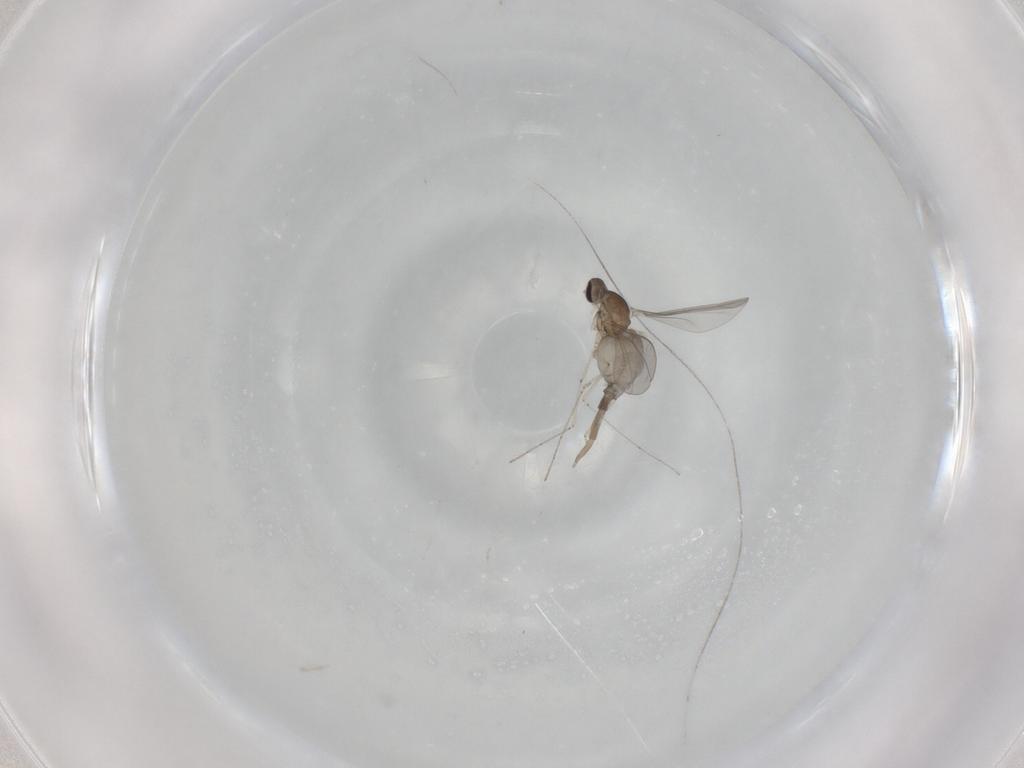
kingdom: Animalia
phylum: Arthropoda
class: Insecta
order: Diptera
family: Cecidomyiidae
